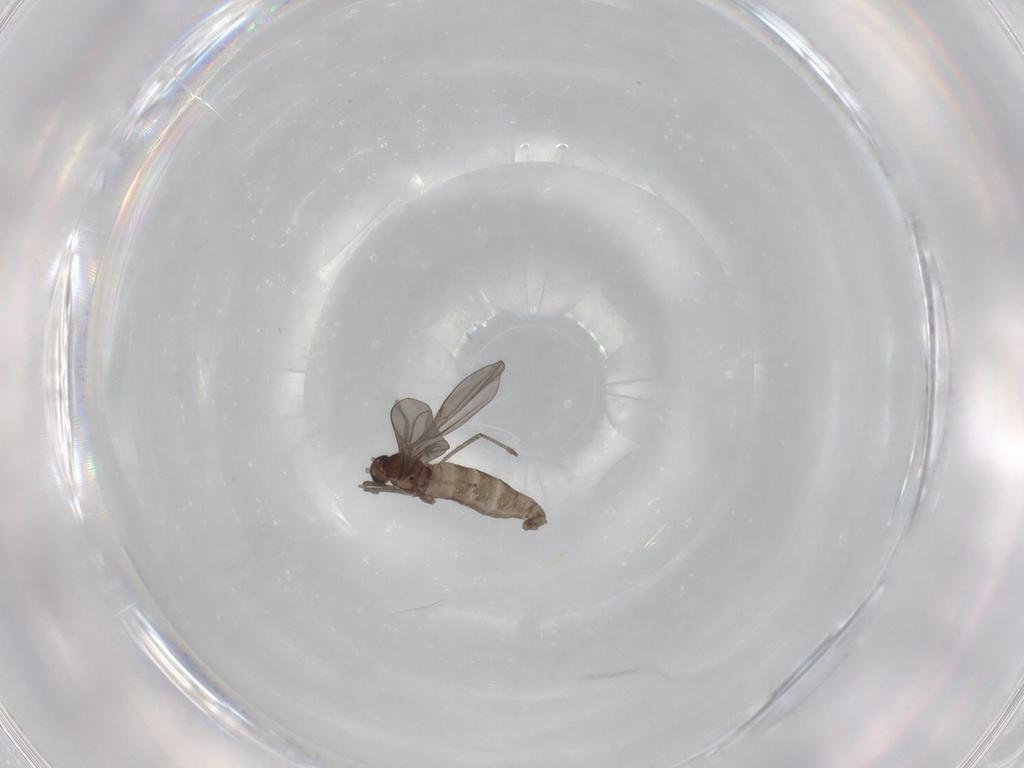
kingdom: Animalia
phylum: Arthropoda
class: Insecta
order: Diptera
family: Cecidomyiidae
